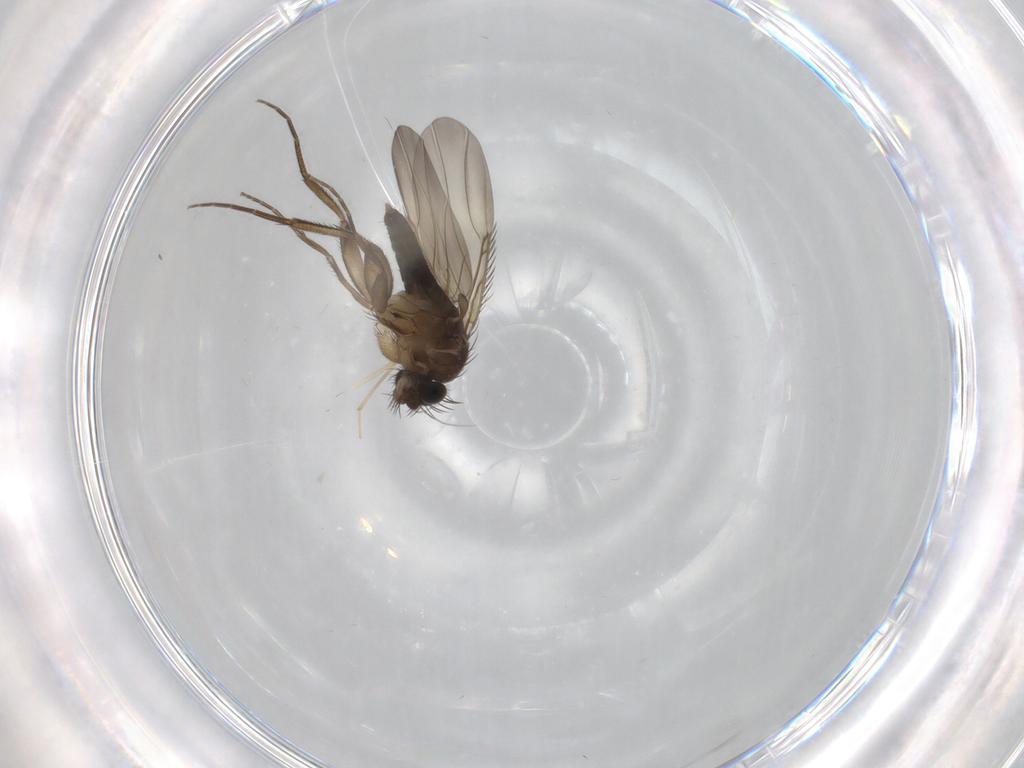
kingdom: Animalia
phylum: Arthropoda
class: Insecta
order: Diptera
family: Phoridae
